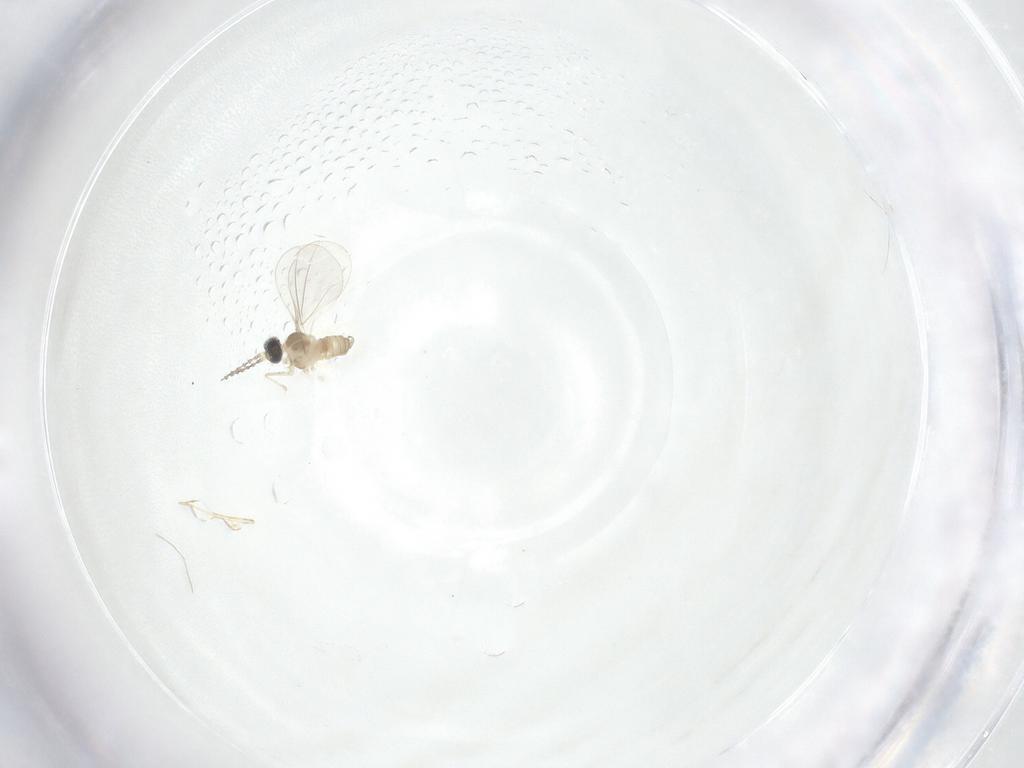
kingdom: Animalia
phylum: Arthropoda
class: Insecta
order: Diptera
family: Cecidomyiidae
